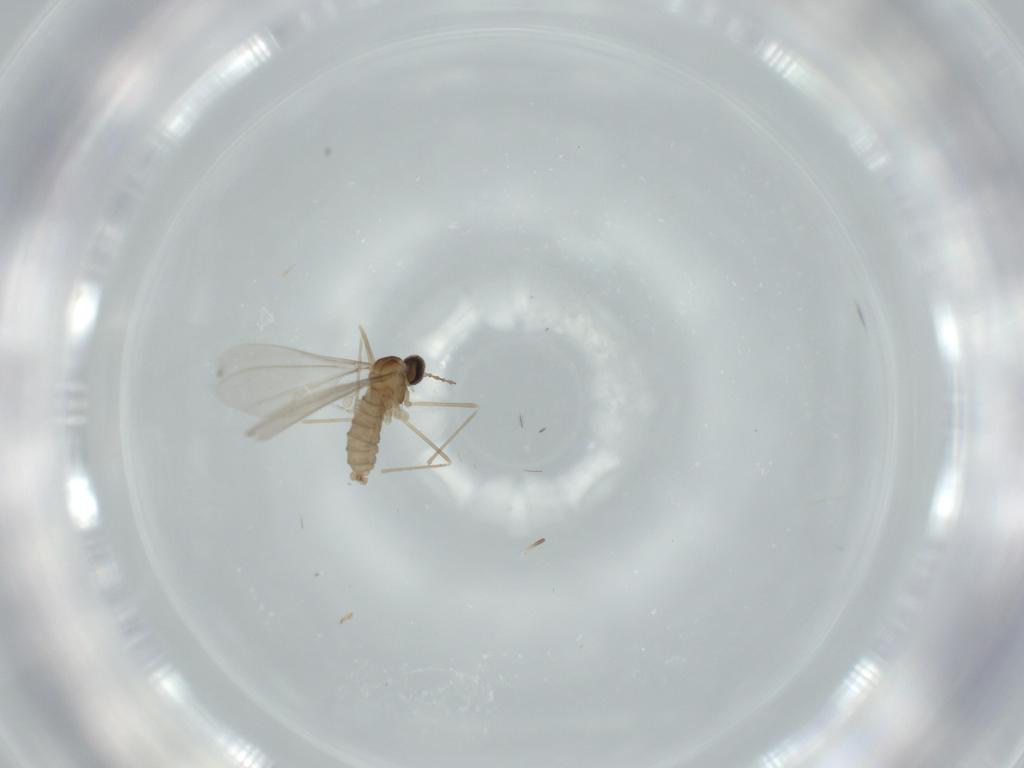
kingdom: Animalia
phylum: Arthropoda
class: Insecta
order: Diptera
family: Cecidomyiidae
